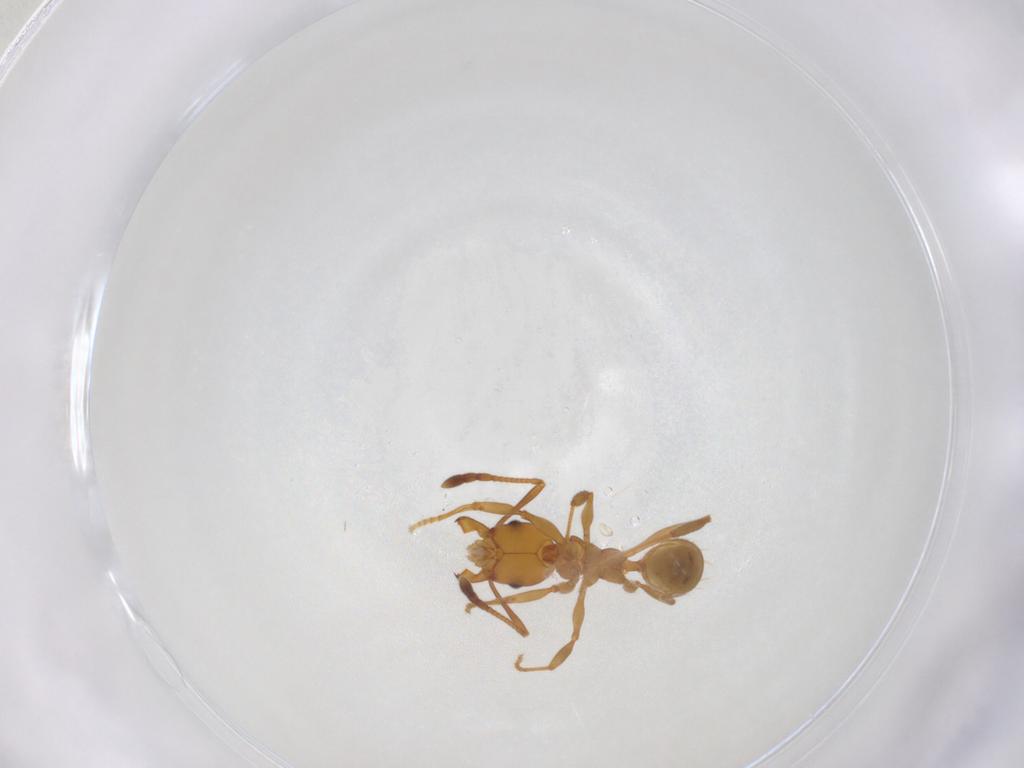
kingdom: Animalia
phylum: Arthropoda
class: Insecta
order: Hymenoptera
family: Formicidae
